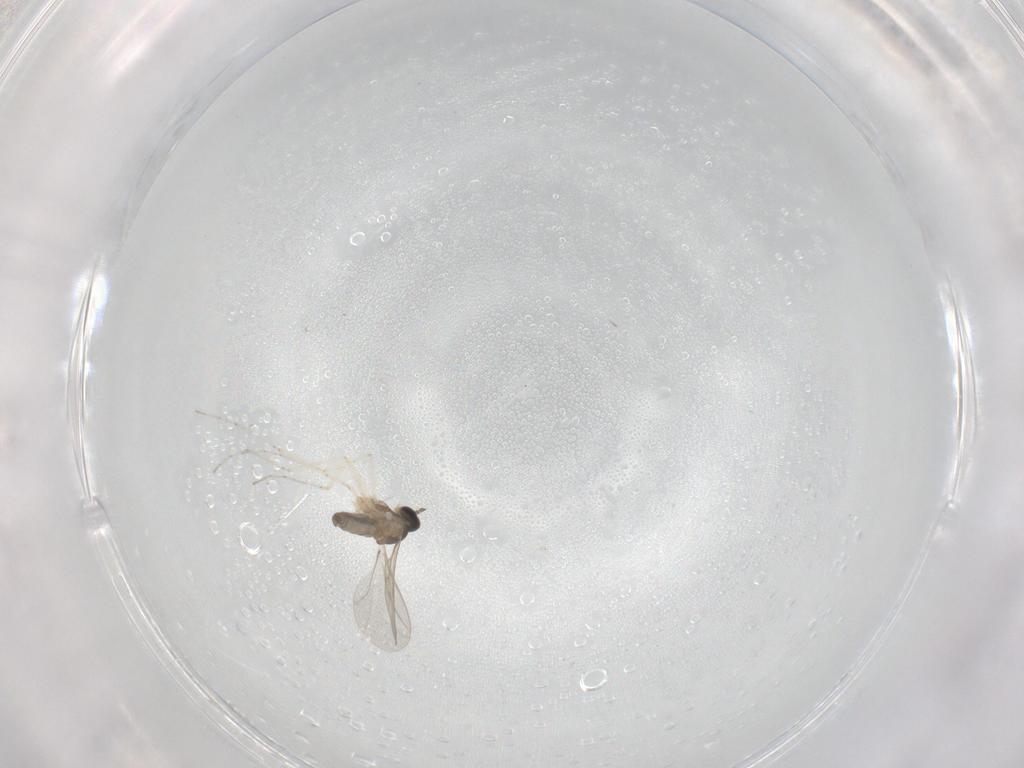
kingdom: Animalia
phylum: Arthropoda
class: Insecta
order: Diptera
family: Cecidomyiidae
